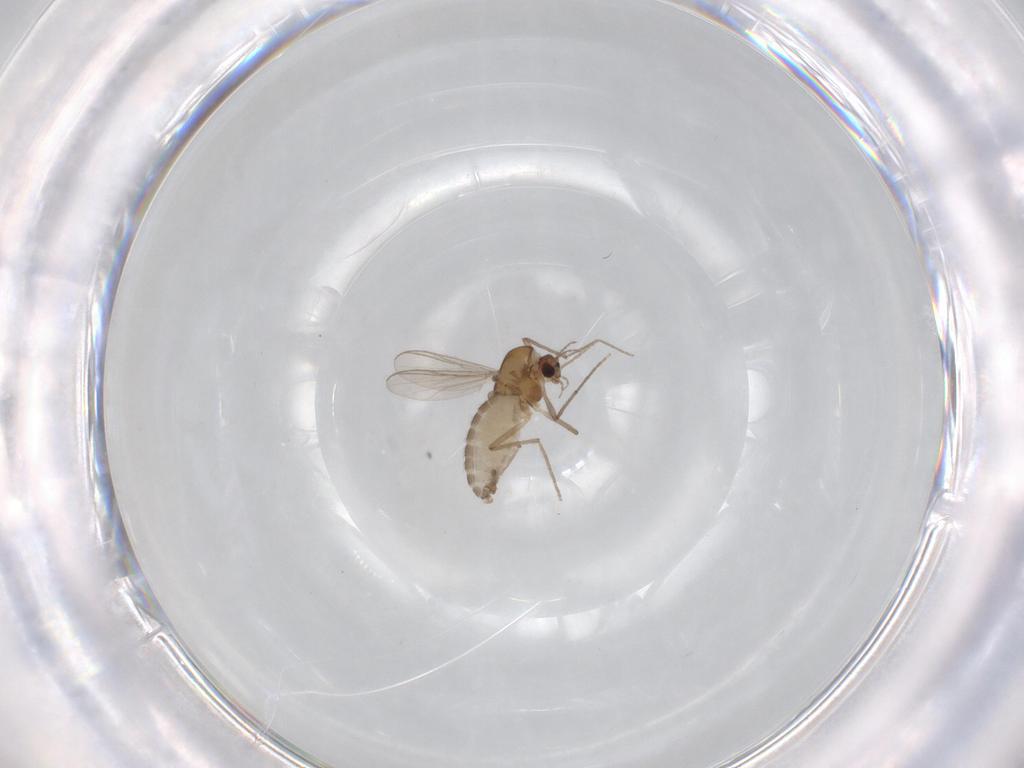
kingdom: Animalia
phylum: Arthropoda
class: Insecta
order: Diptera
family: Chironomidae
